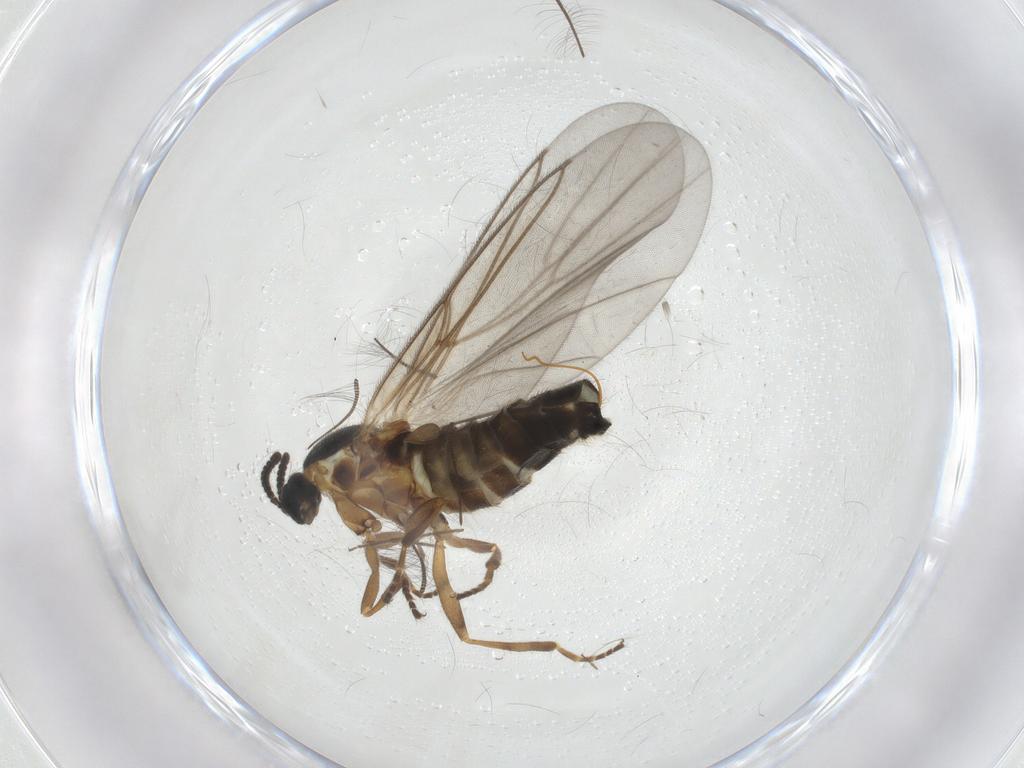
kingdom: Animalia
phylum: Arthropoda
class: Insecta
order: Diptera
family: Scatopsidae
